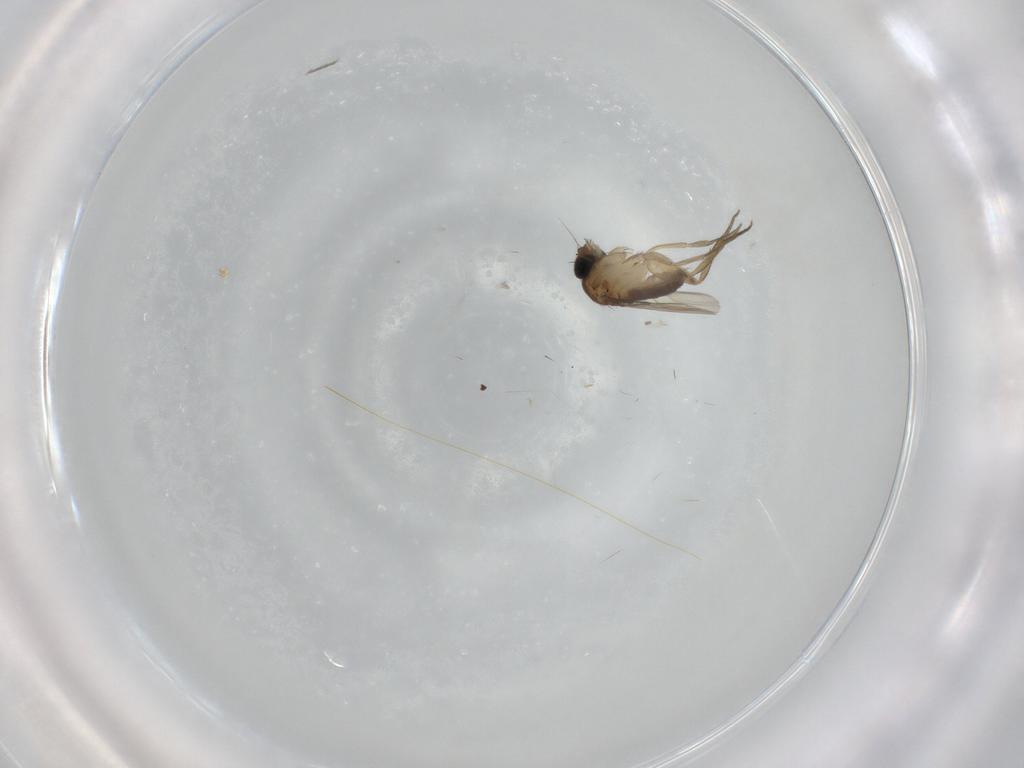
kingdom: Animalia
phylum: Arthropoda
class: Insecta
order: Diptera
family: Phoridae
